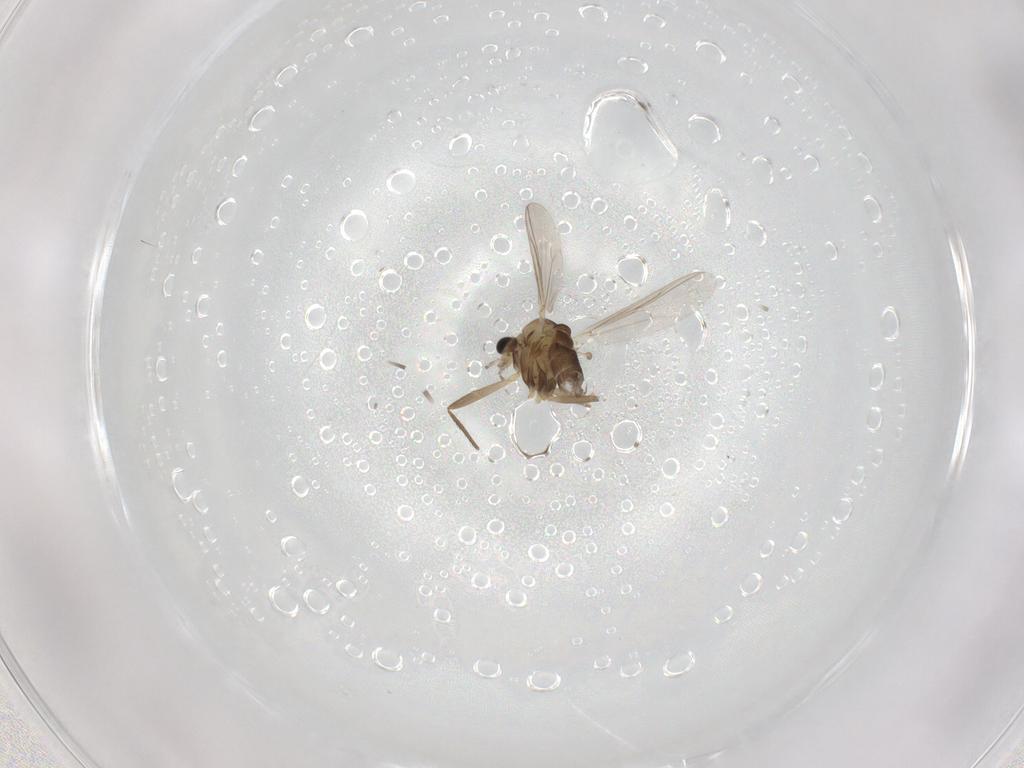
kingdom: Animalia
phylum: Arthropoda
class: Insecta
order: Diptera
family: Chironomidae
